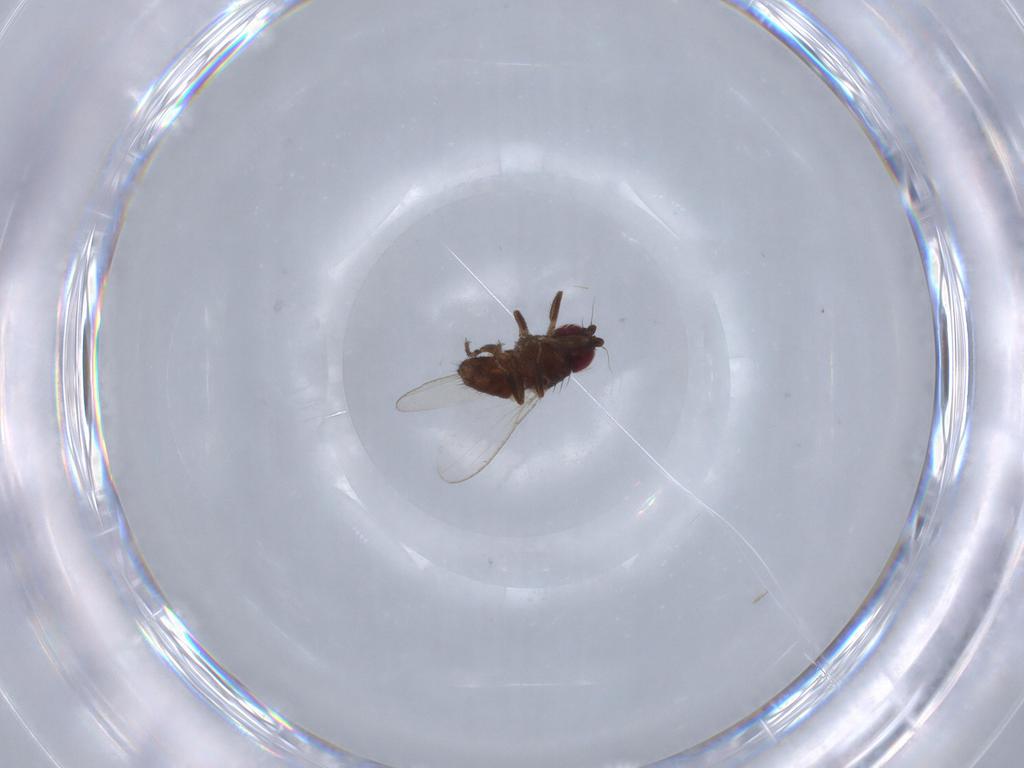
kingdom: Animalia
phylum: Arthropoda
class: Insecta
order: Diptera
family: Milichiidae
